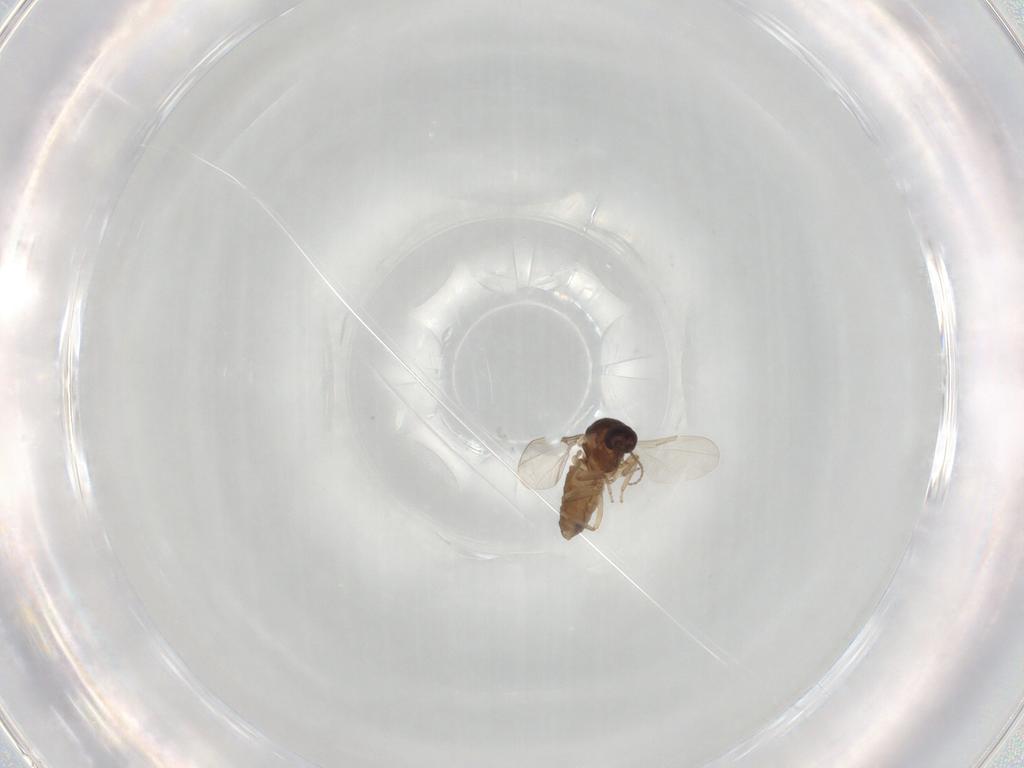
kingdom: Animalia
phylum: Arthropoda
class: Insecta
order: Diptera
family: Ceratopogonidae
